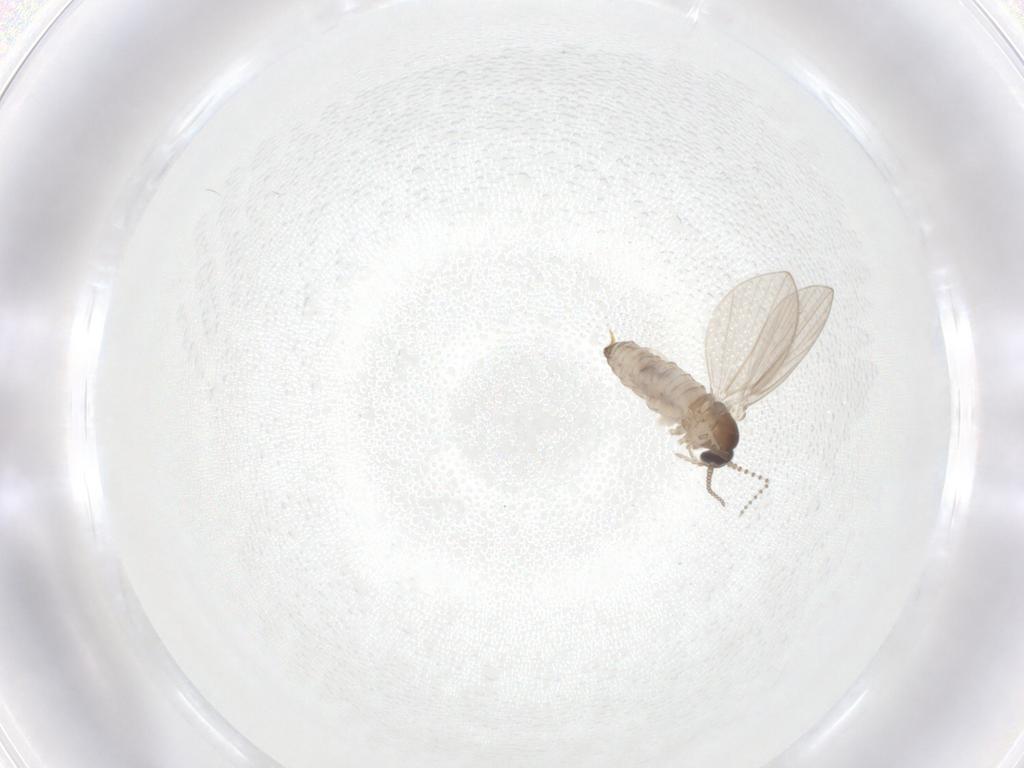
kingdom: Animalia
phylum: Arthropoda
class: Insecta
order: Diptera
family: Psychodidae
